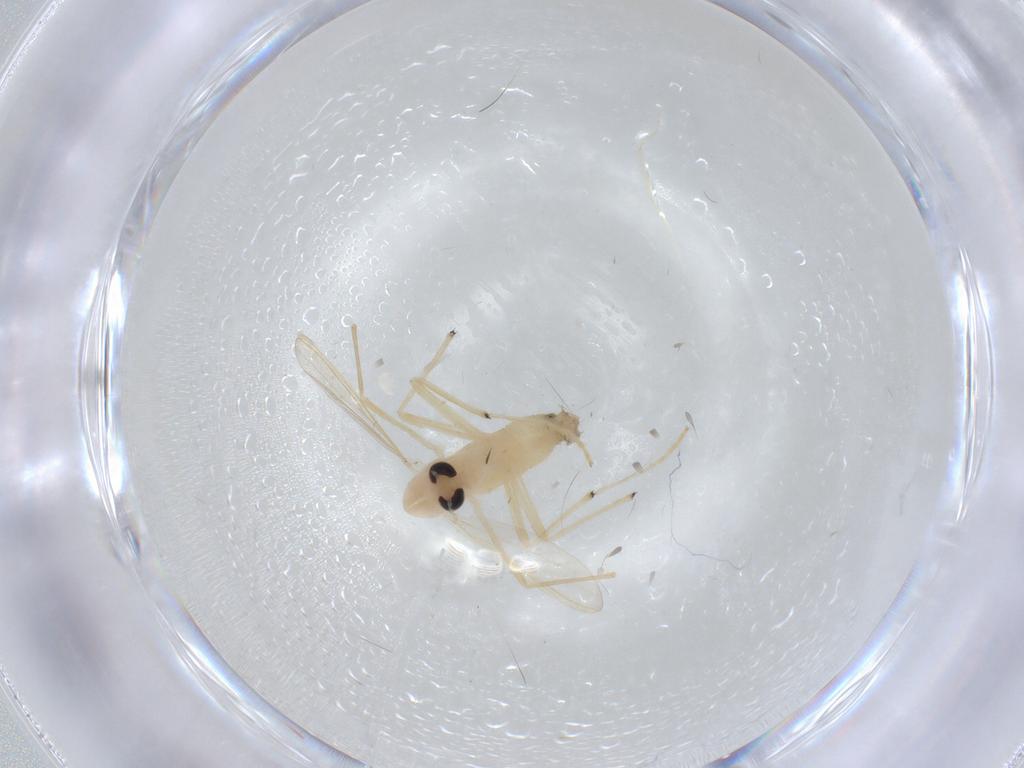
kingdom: Animalia
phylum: Arthropoda
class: Insecta
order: Diptera
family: Chironomidae
